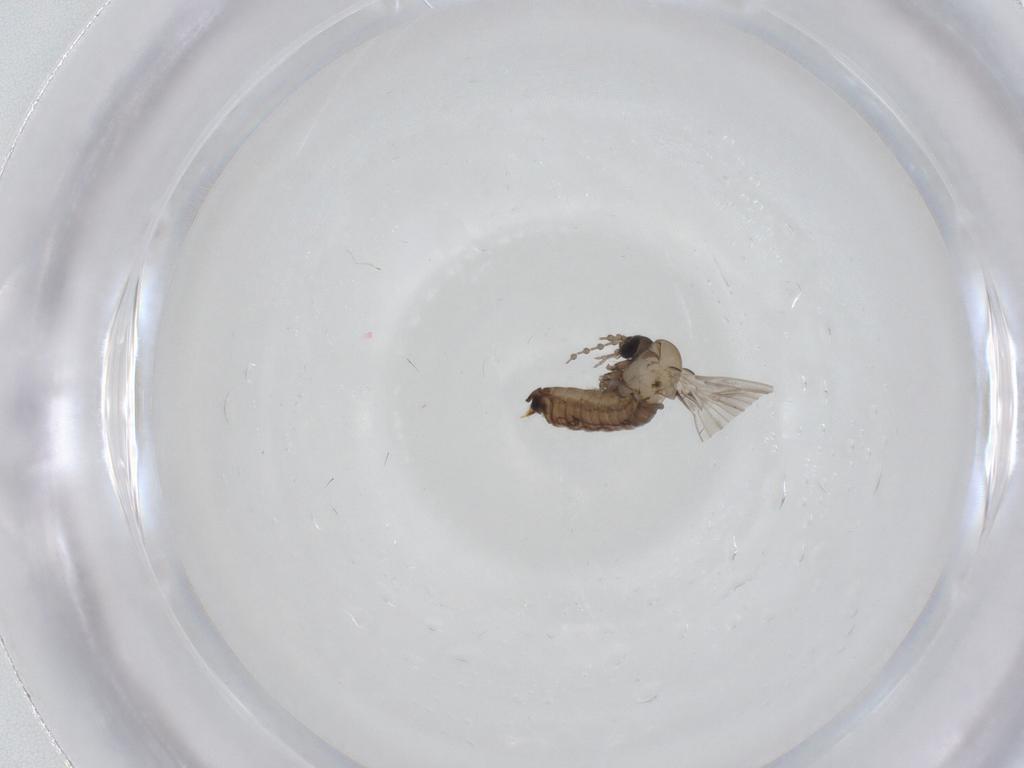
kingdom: Animalia
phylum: Arthropoda
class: Insecta
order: Diptera
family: Psychodidae
